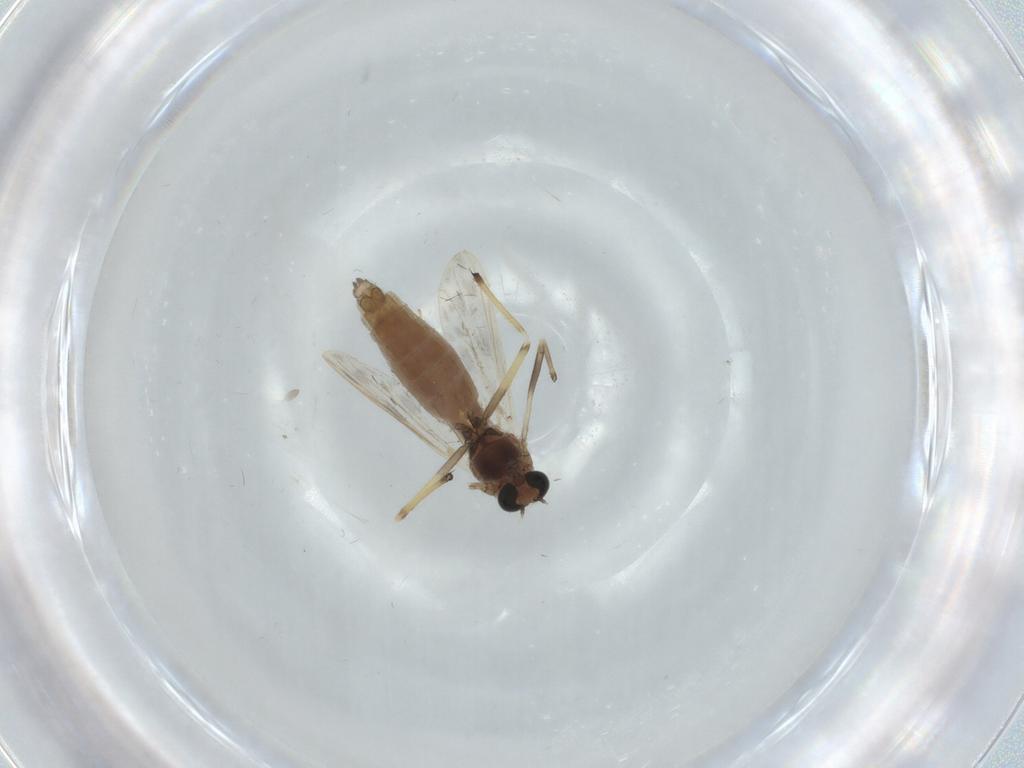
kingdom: Animalia
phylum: Arthropoda
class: Insecta
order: Diptera
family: Chironomidae
